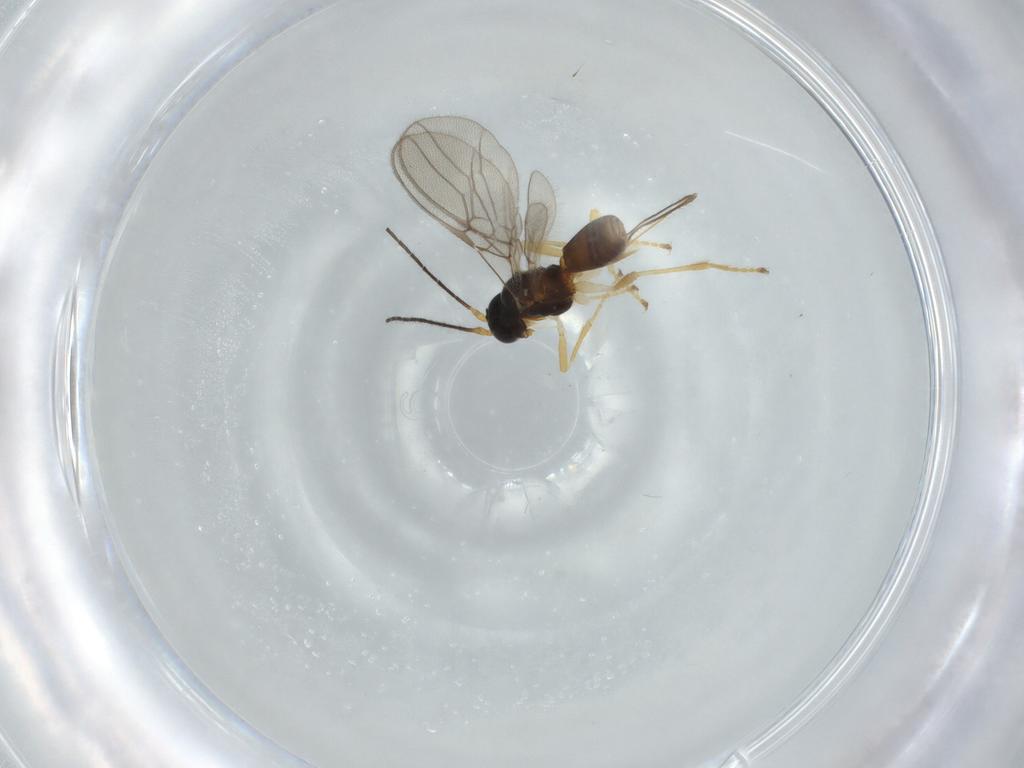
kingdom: Animalia
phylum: Arthropoda
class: Insecta
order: Hymenoptera
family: Braconidae
